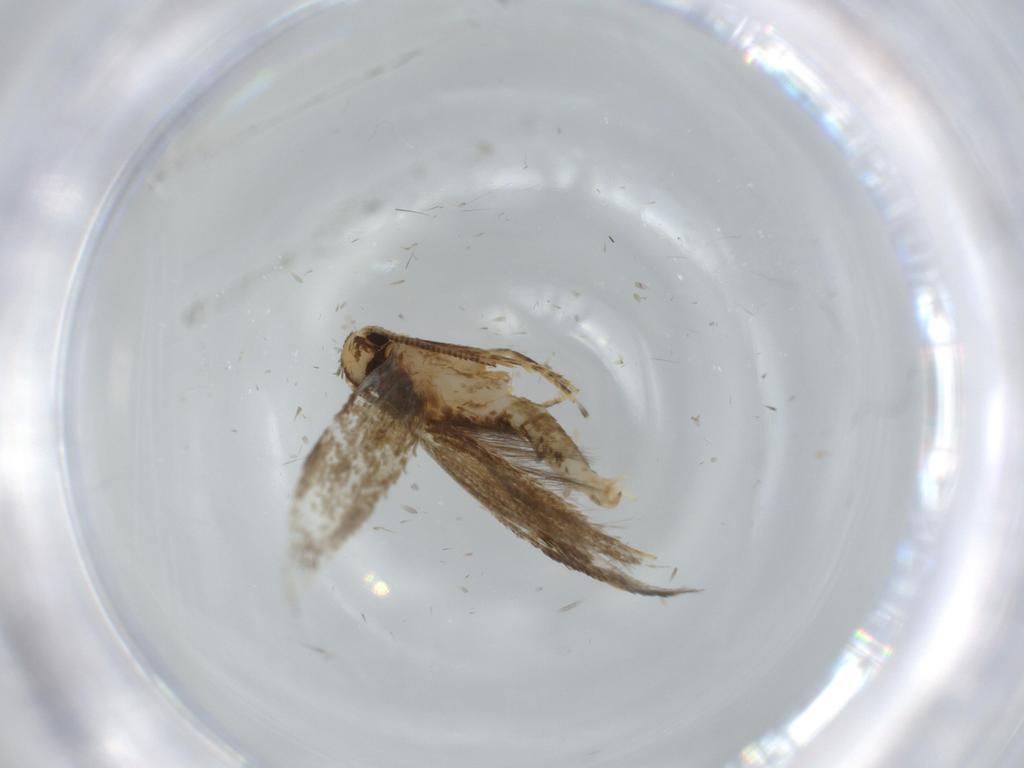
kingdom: Animalia
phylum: Arthropoda
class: Insecta
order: Lepidoptera
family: Tineidae
